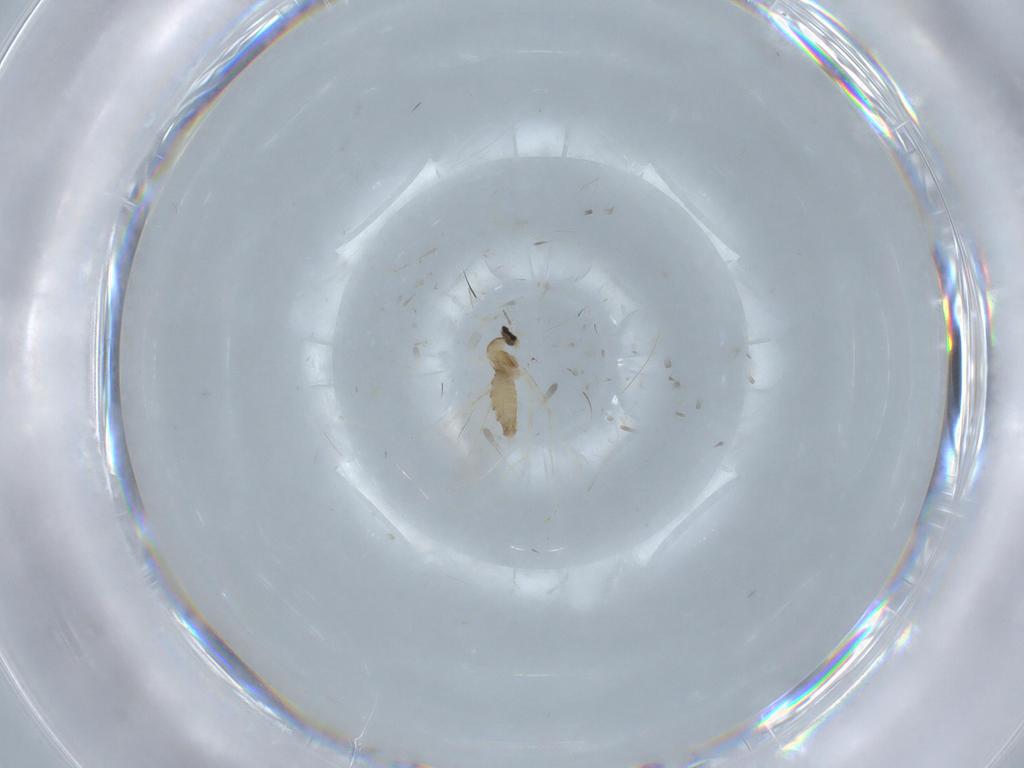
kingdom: Animalia
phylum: Arthropoda
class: Insecta
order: Diptera
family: Cecidomyiidae
